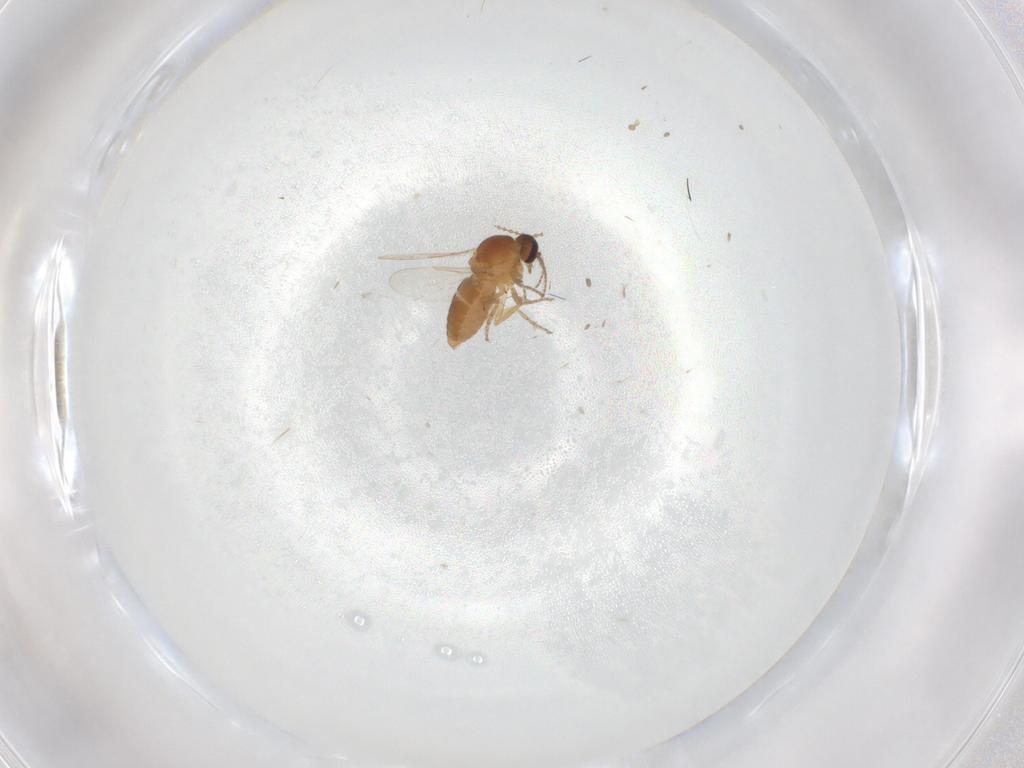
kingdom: Animalia
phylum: Arthropoda
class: Insecta
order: Diptera
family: Ceratopogonidae
